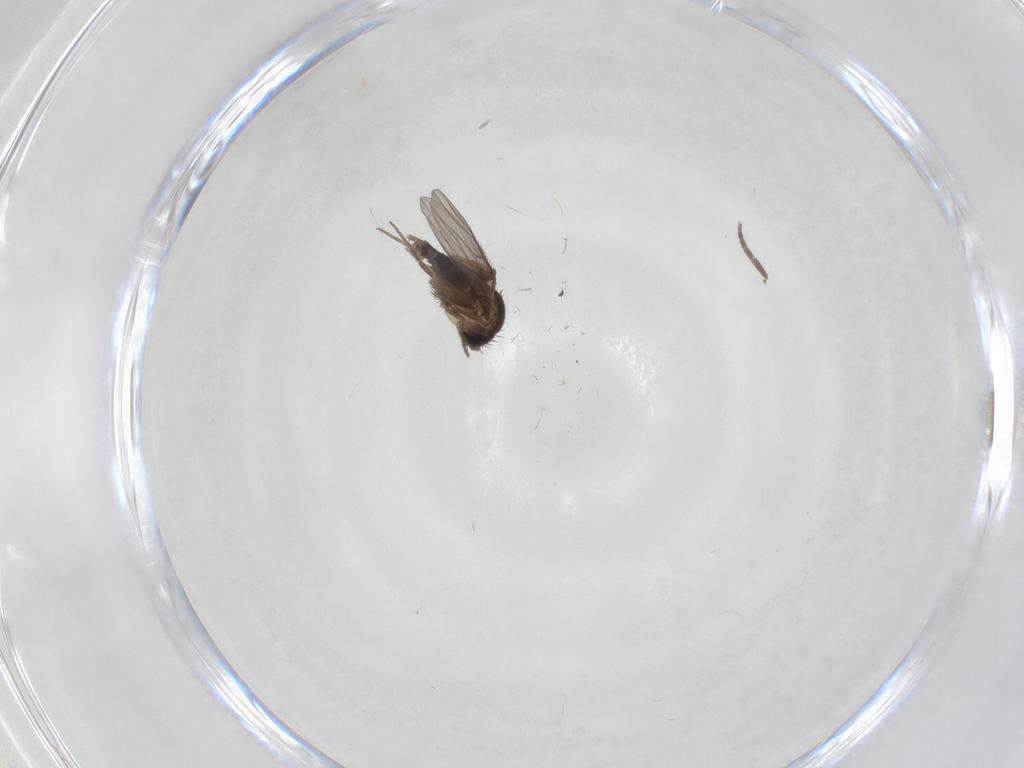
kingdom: Animalia
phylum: Arthropoda
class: Insecta
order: Diptera
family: Phoridae
